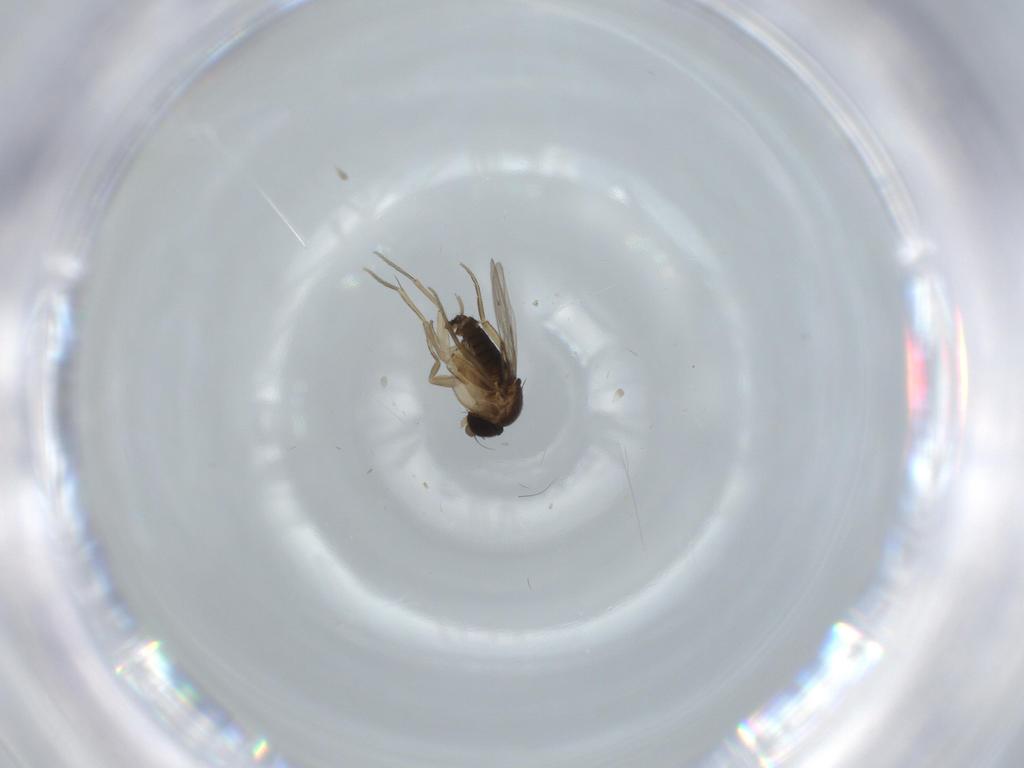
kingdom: Animalia
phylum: Arthropoda
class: Insecta
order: Diptera
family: Phoridae
